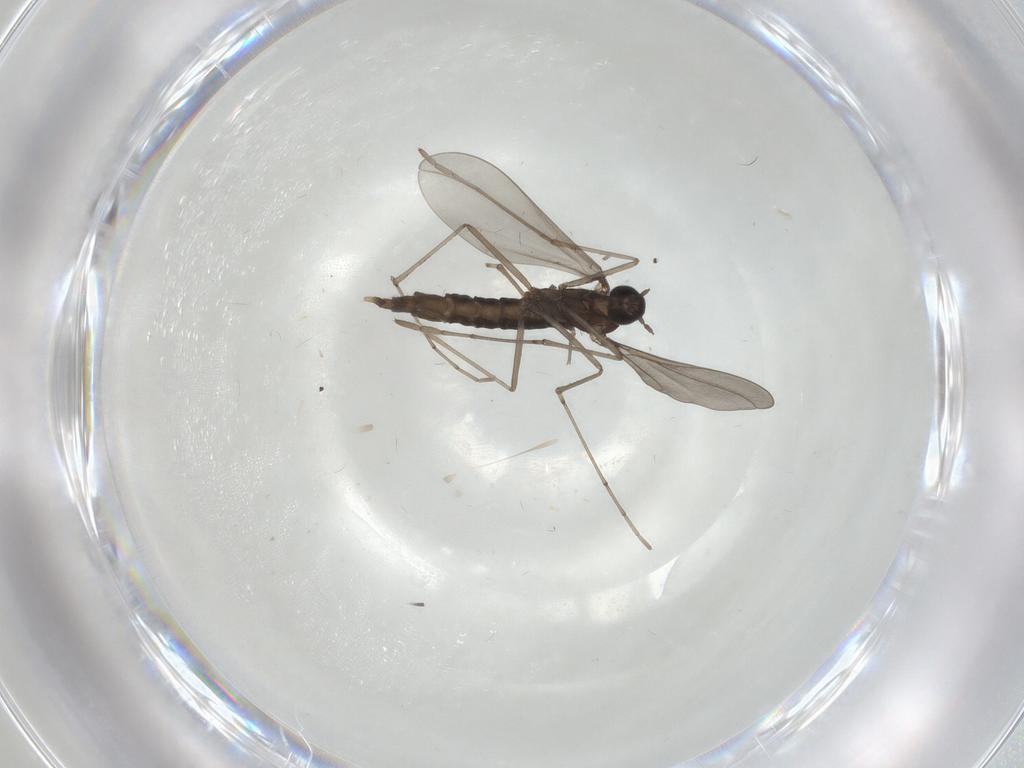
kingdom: Animalia
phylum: Arthropoda
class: Insecta
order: Diptera
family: Cecidomyiidae
